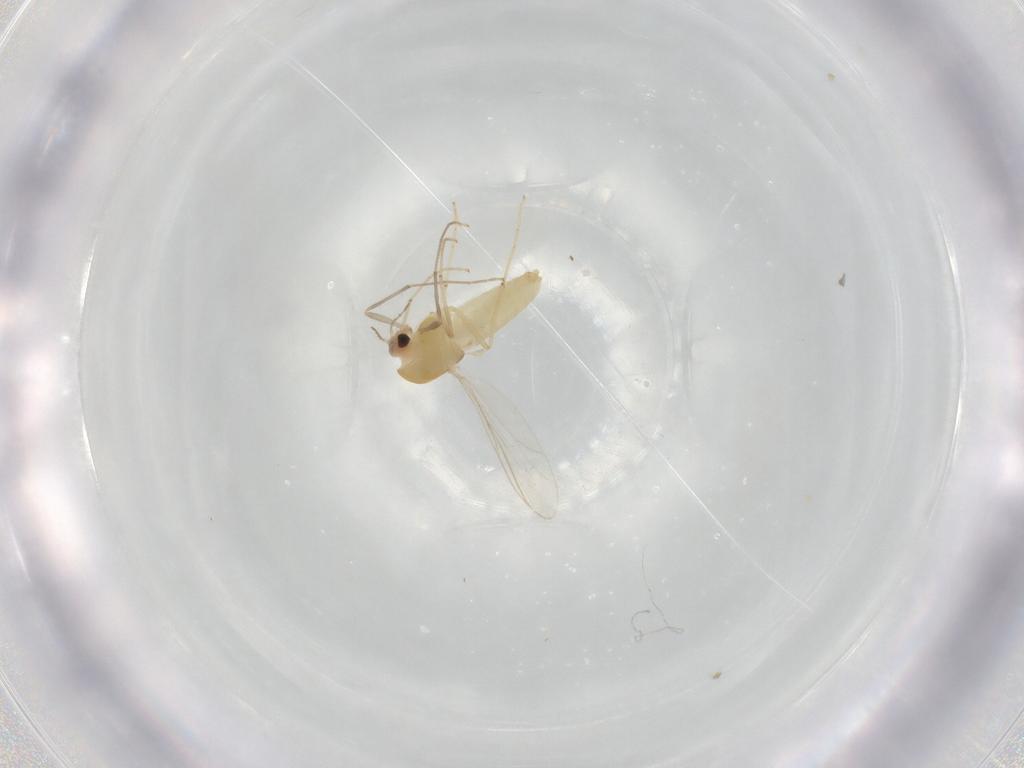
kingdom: Animalia
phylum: Arthropoda
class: Insecta
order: Diptera
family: Chironomidae
